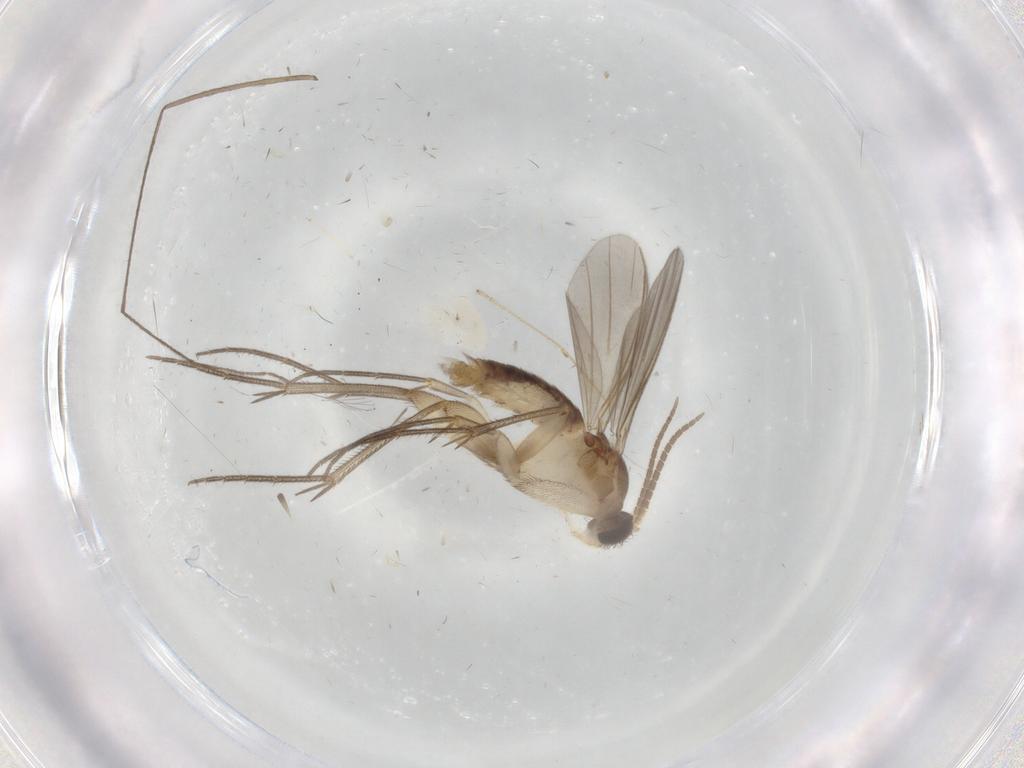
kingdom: Animalia
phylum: Arthropoda
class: Insecta
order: Diptera
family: Ceratopogonidae
